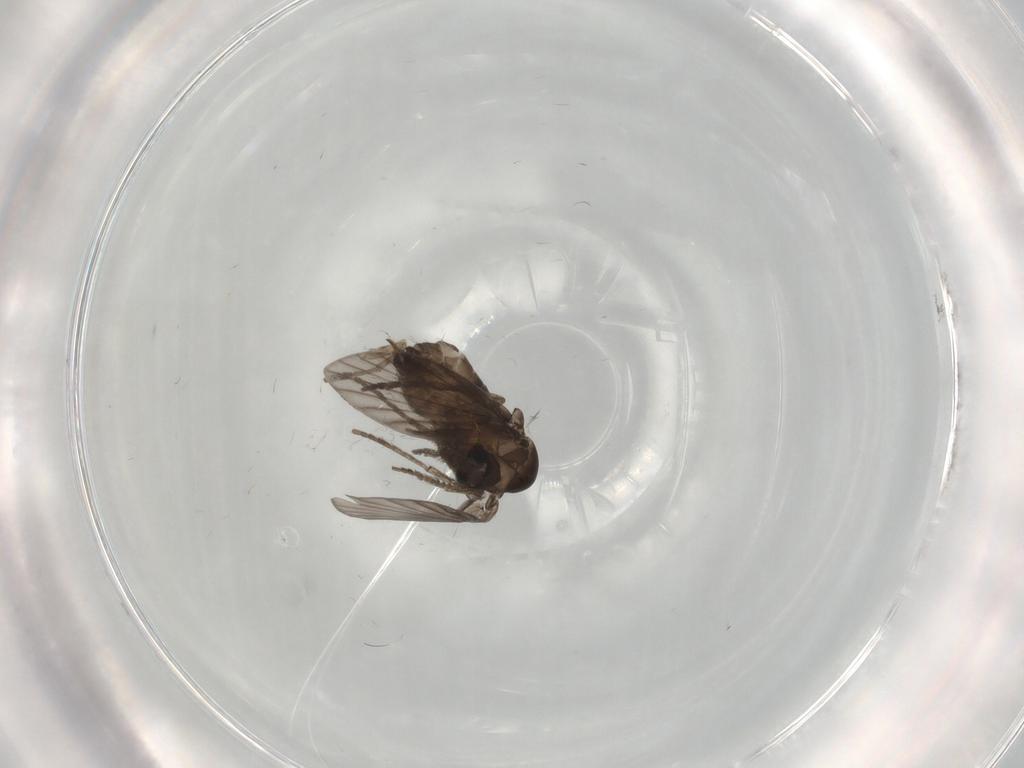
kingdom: Animalia
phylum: Arthropoda
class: Insecta
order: Diptera
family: Psychodidae
